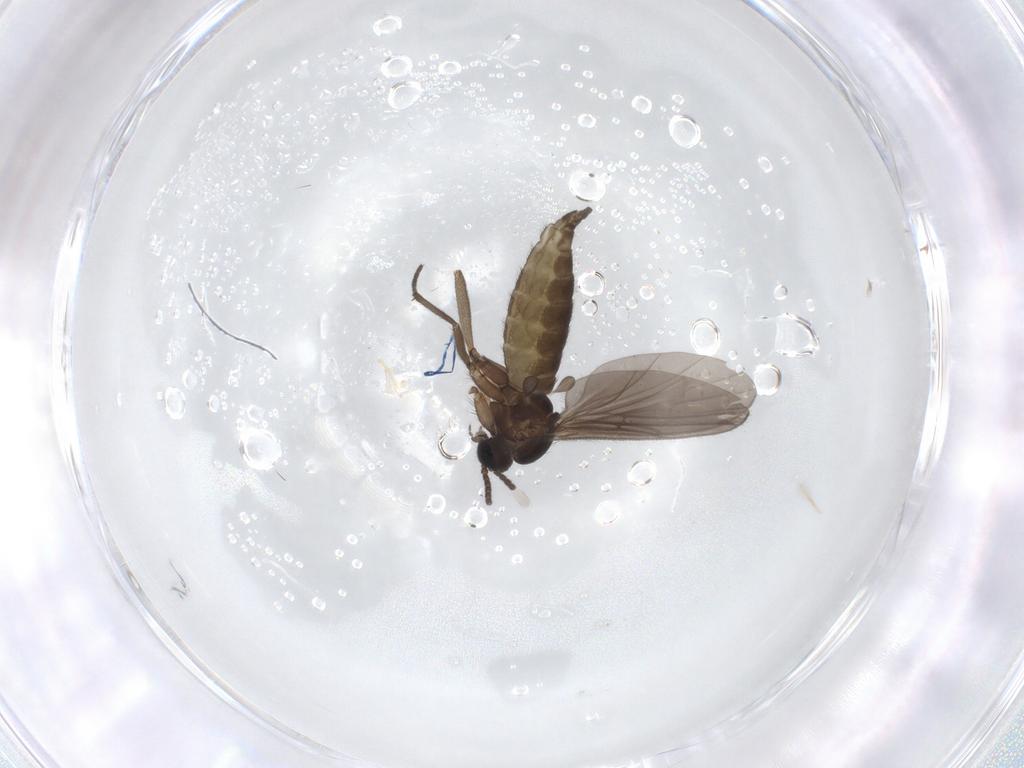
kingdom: Animalia
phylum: Arthropoda
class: Insecta
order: Diptera
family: Sciaridae
